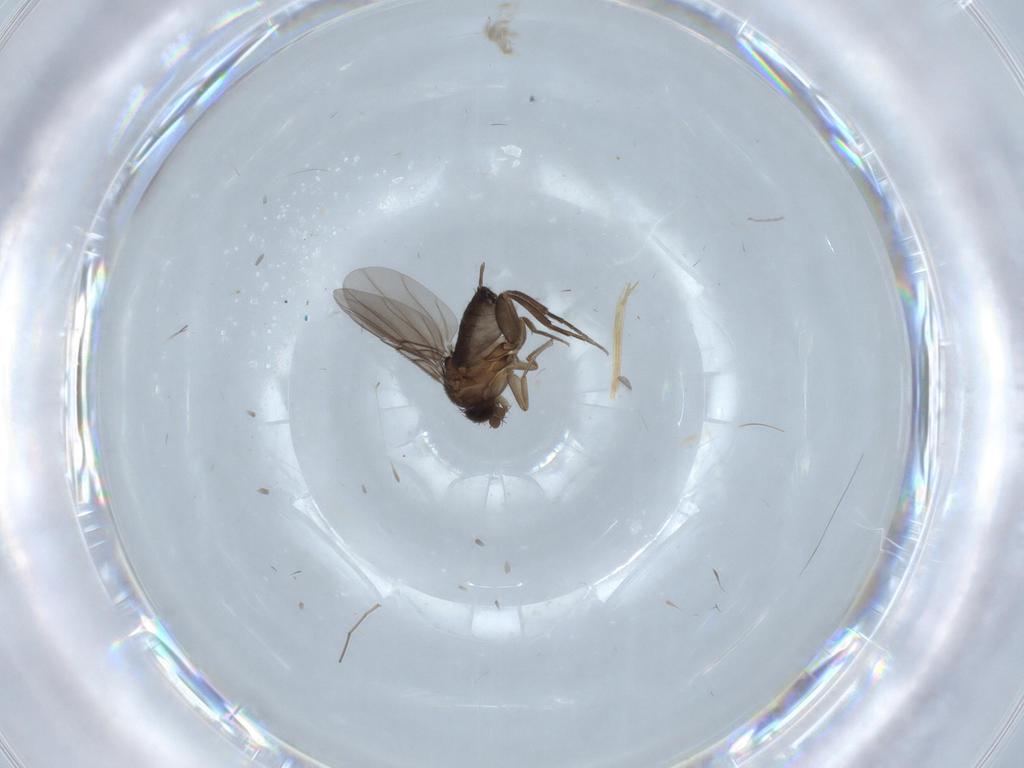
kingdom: Animalia
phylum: Arthropoda
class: Insecta
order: Diptera
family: Phoridae
